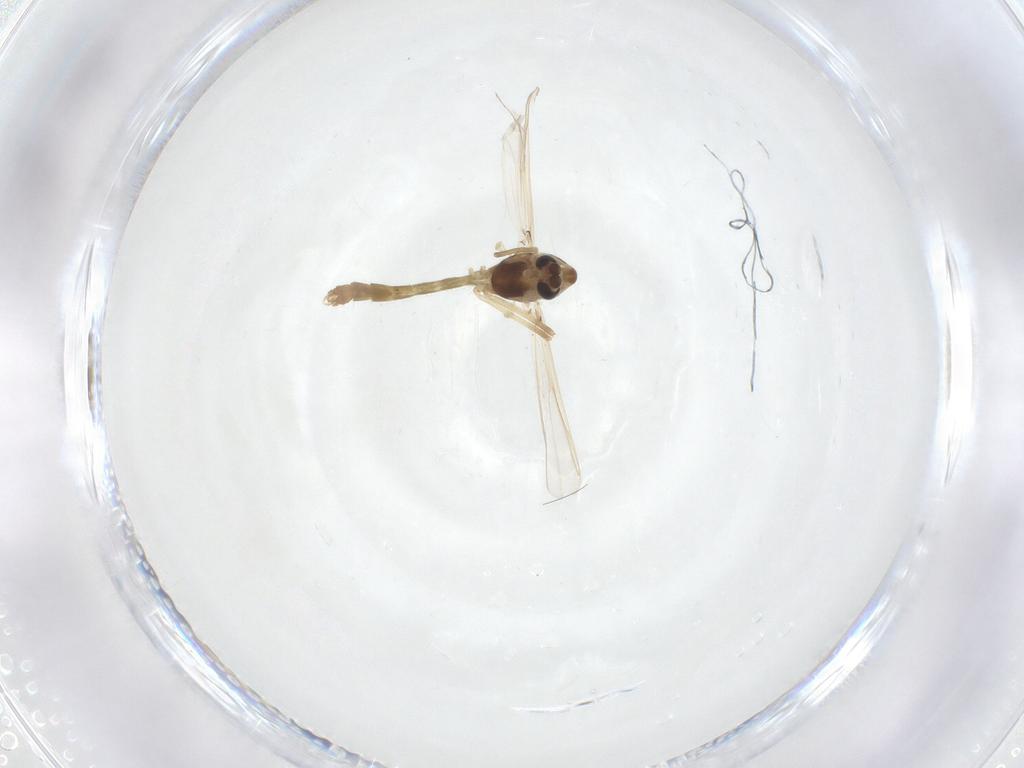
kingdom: Animalia
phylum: Arthropoda
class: Insecta
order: Diptera
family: Chironomidae
